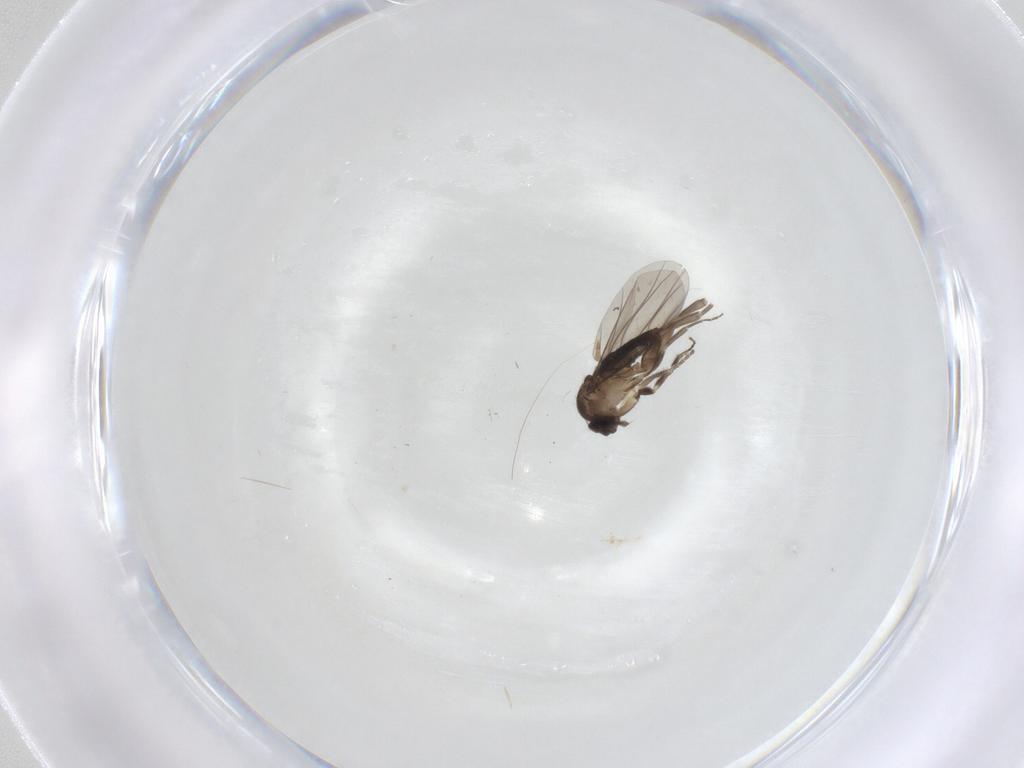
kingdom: Animalia
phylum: Arthropoda
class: Insecta
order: Diptera
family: Phoridae
